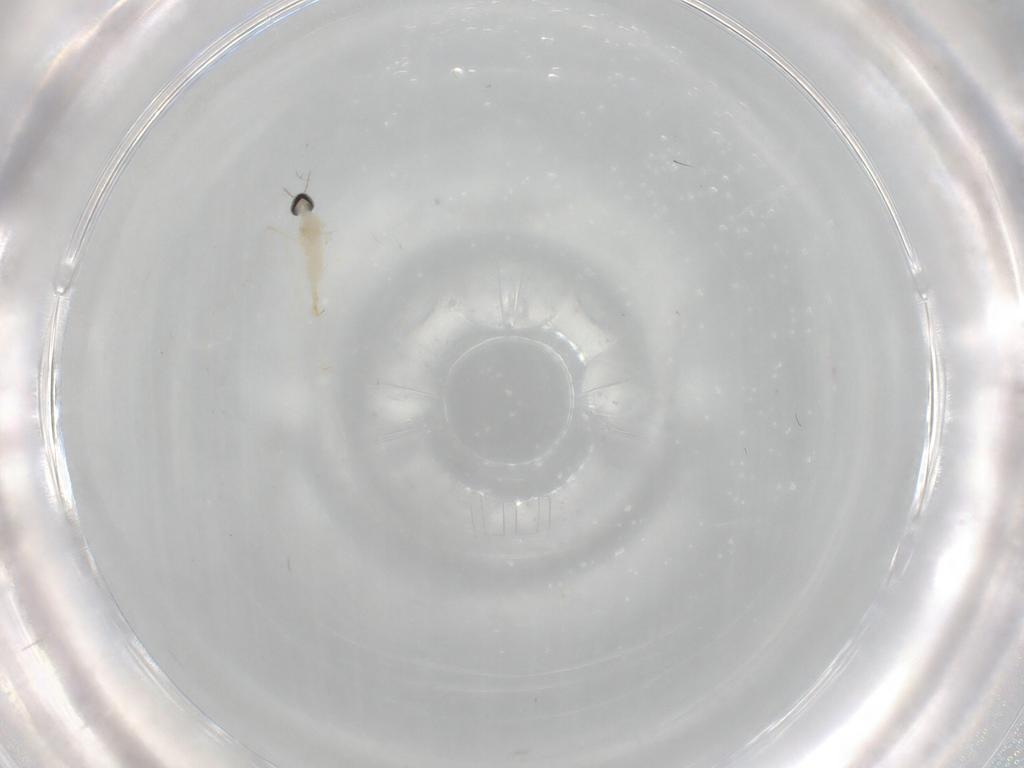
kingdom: Animalia
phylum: Arthropoda
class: Insecta
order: Diptera
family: Cecidomyiidae
